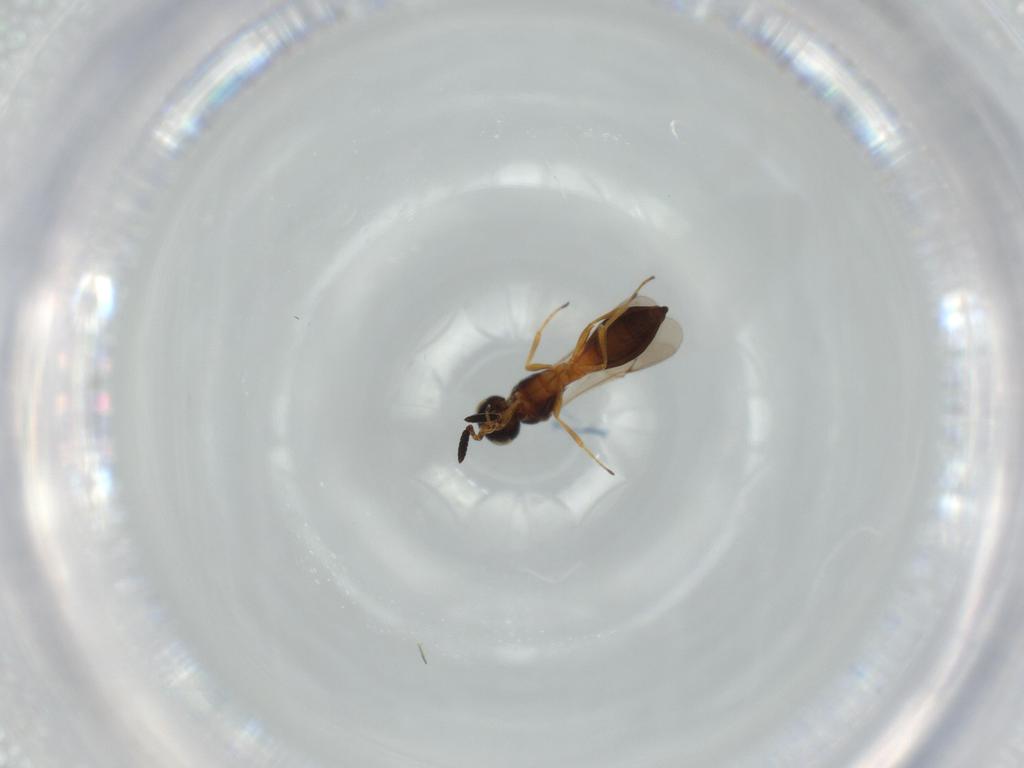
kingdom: Animalia
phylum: Arthropoda
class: Insecta
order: Hymenoptera
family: Scelionidae
